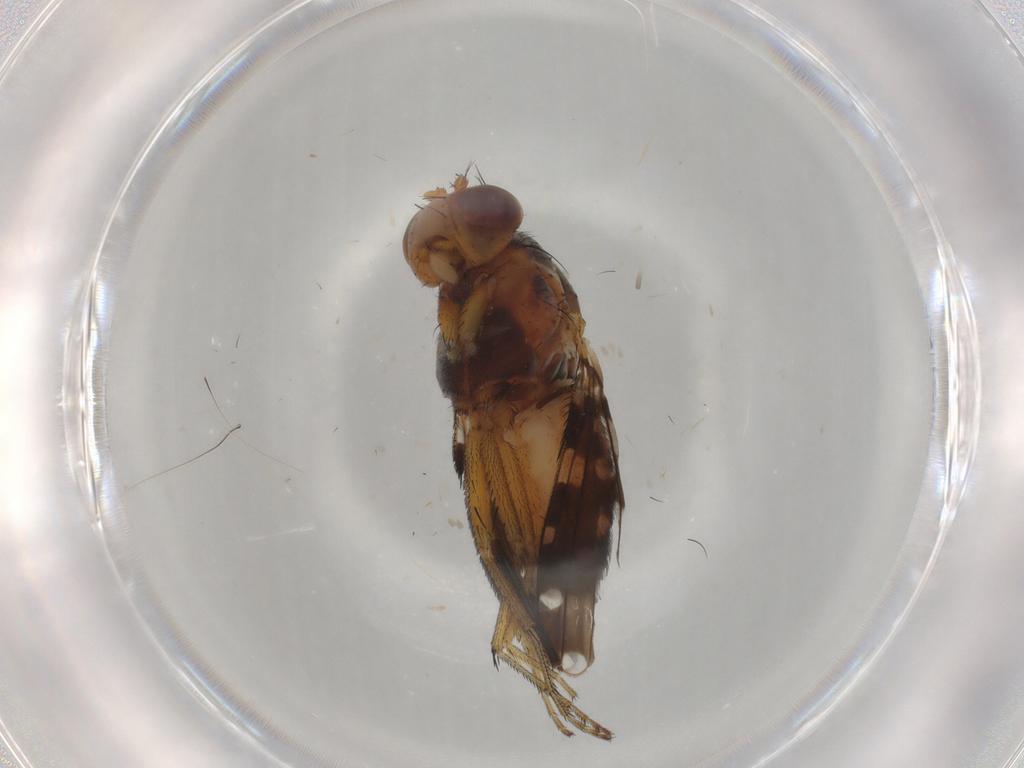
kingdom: Animalia
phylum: Arthropoda
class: Insecta
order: Diptera
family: Ephydridae
